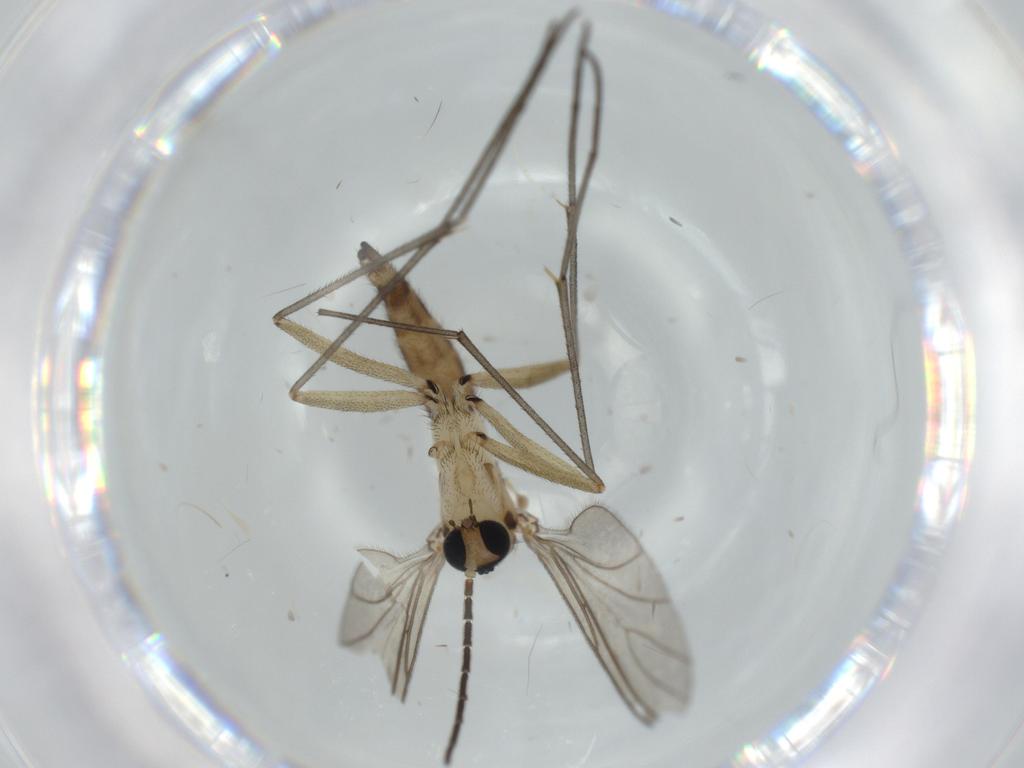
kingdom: Animalia
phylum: Arthropoda
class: Insecta
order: Diptera
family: Sciaridae
